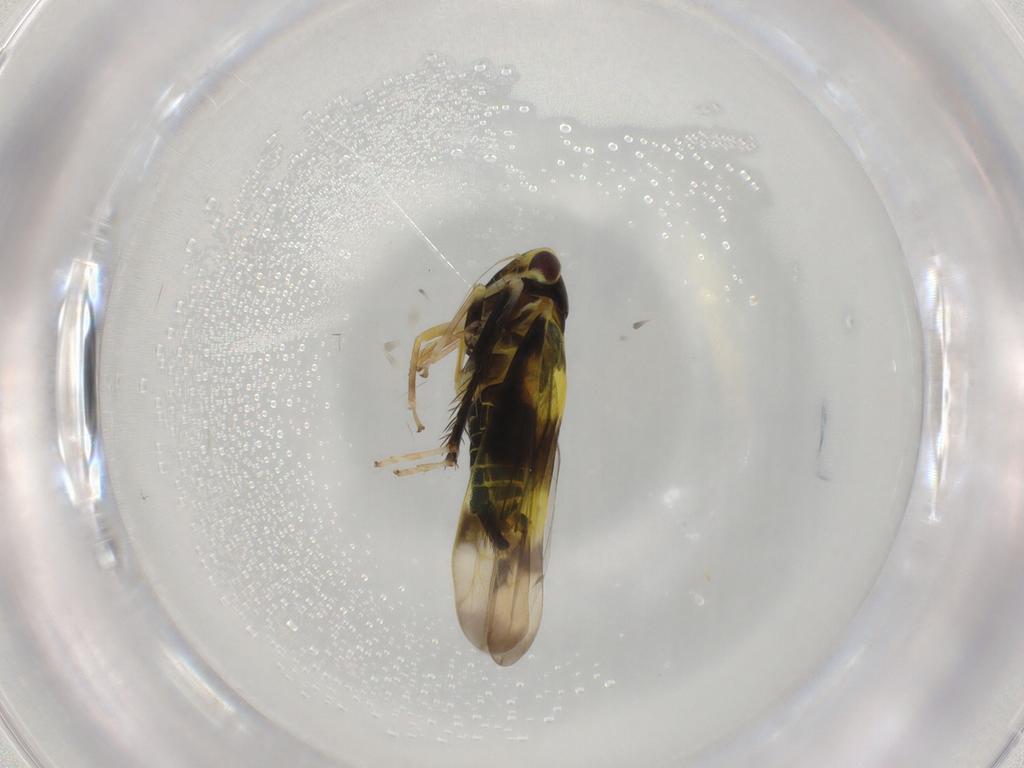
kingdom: Animalia
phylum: Arthropoda
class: Insecta
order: Hemiptera
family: Cicadellidae
